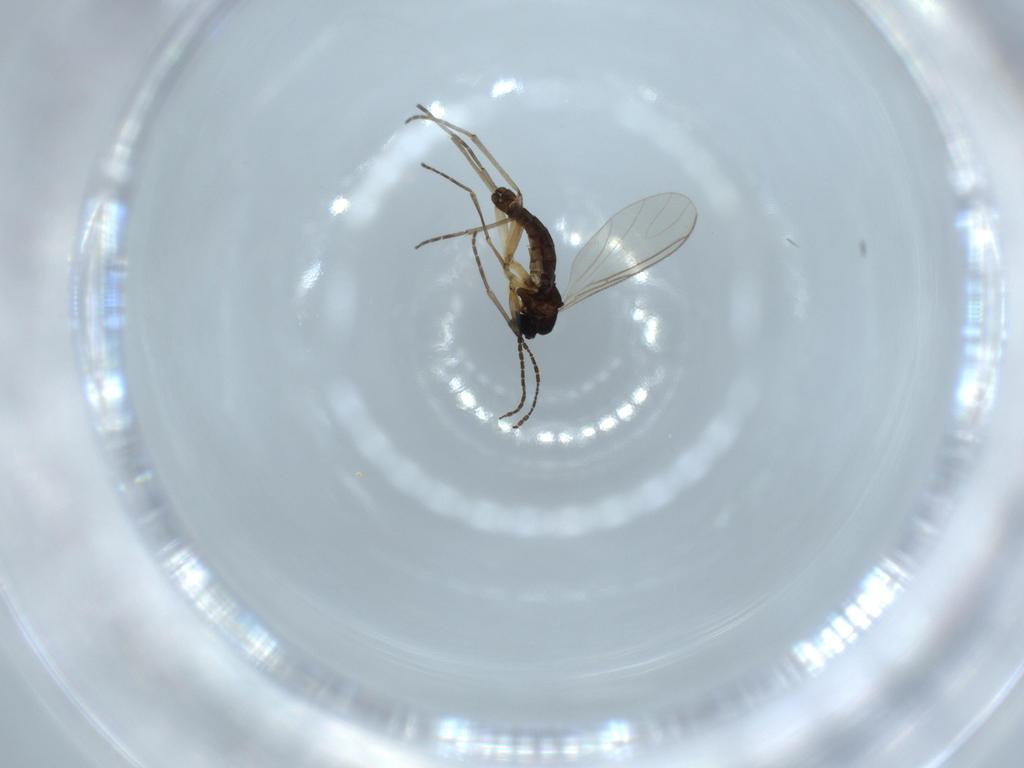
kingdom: Animalia
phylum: Arthropoda
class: Insecta
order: Diptera
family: Sciaridae
